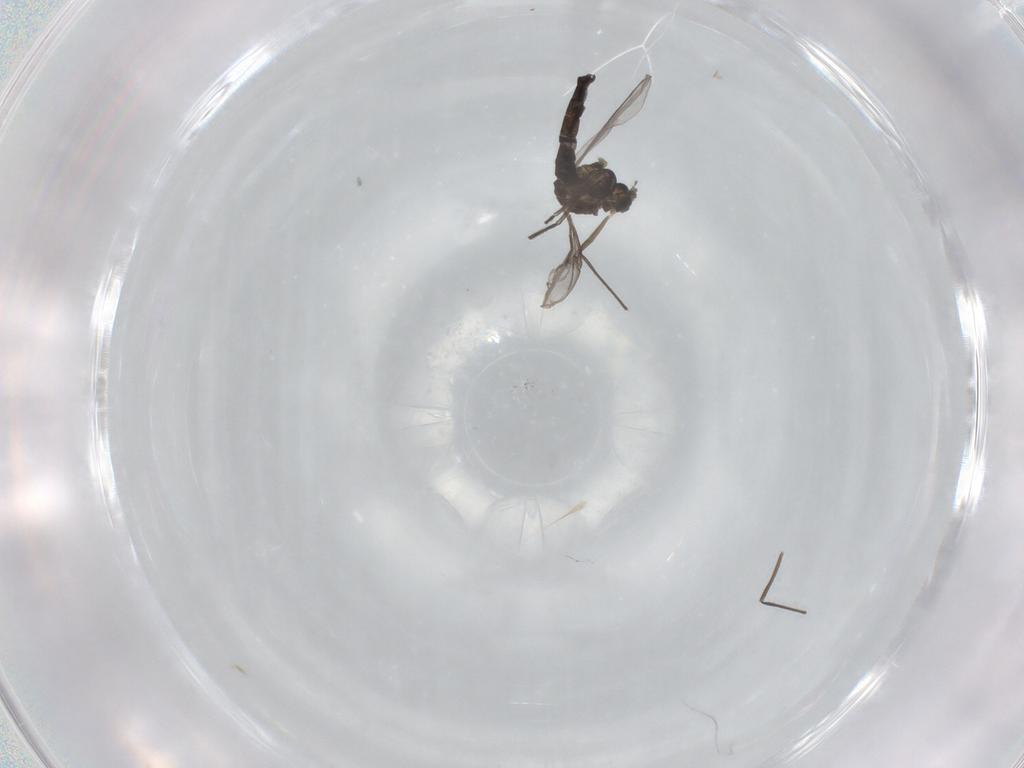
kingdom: Animalia
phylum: Arthropoda
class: Insecta
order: Diptera
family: Chironomidae
